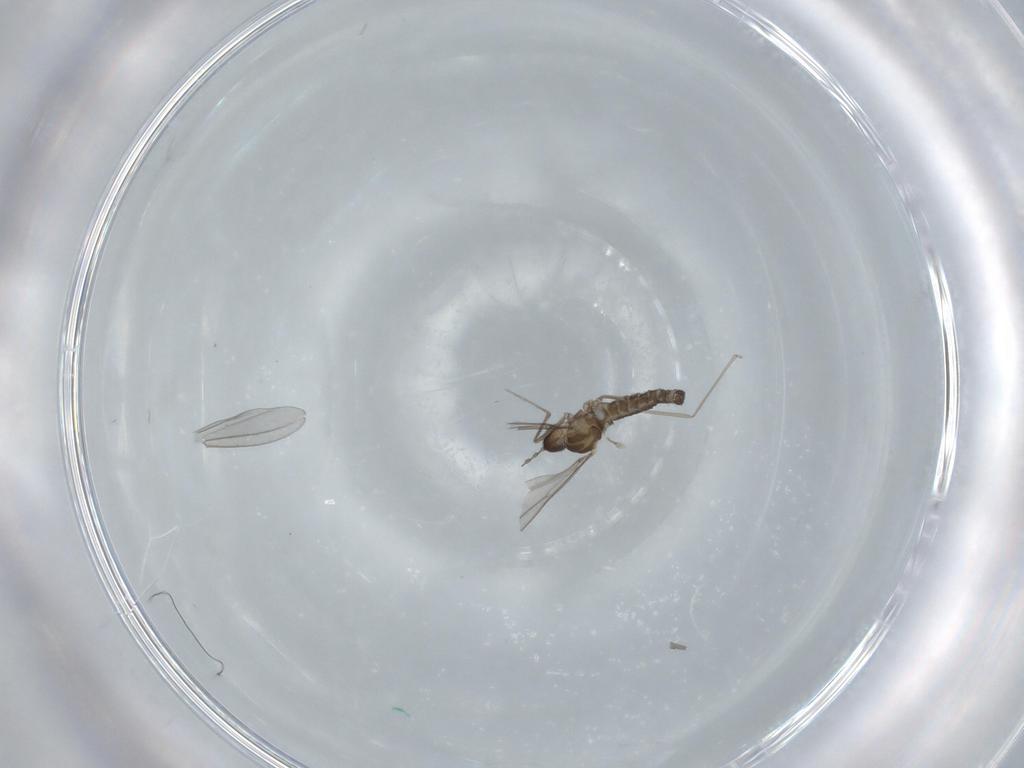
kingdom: Animalia
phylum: Arthropoda
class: Insecta
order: Diptera
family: Cecidomyiidae
